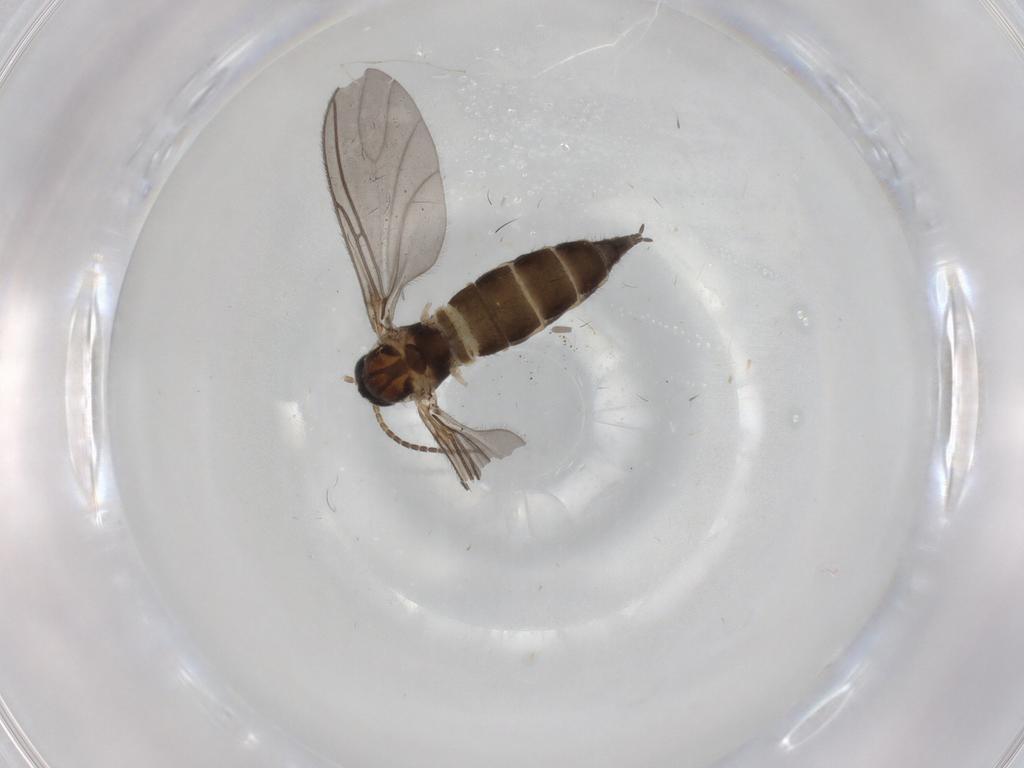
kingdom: Animalia
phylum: Arthropoda
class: Insecta
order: Diptera
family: Sciaridae
